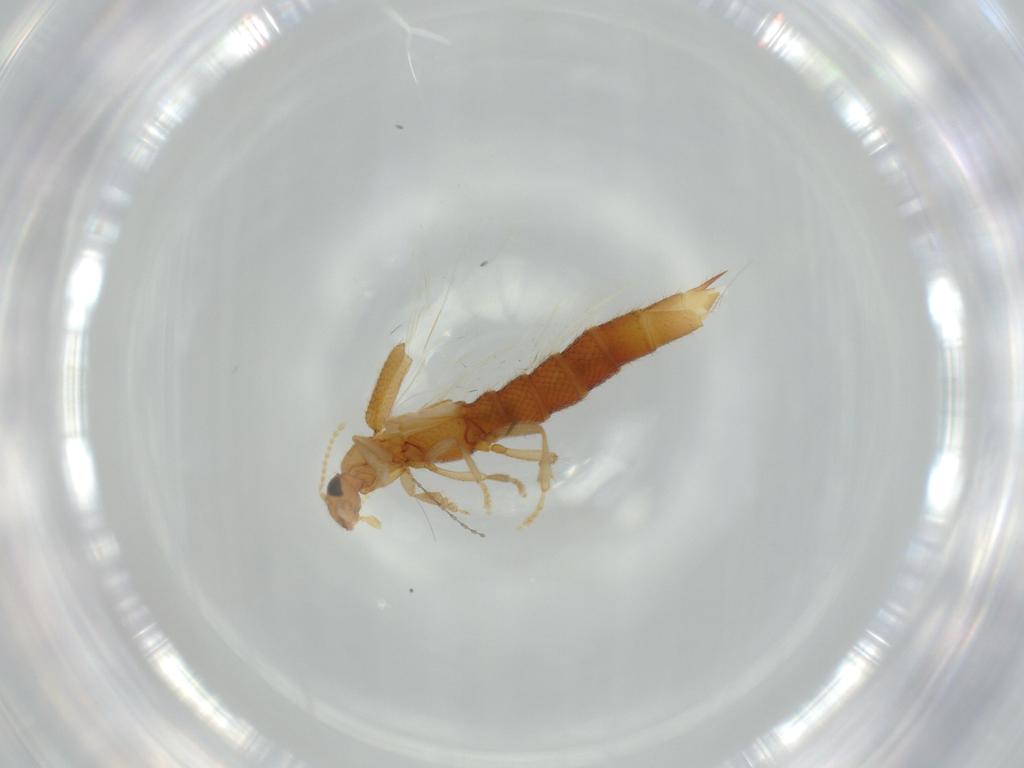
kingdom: Animalia
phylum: Arthropoda
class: Insecta
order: Coleoptera
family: Staphylinidae
